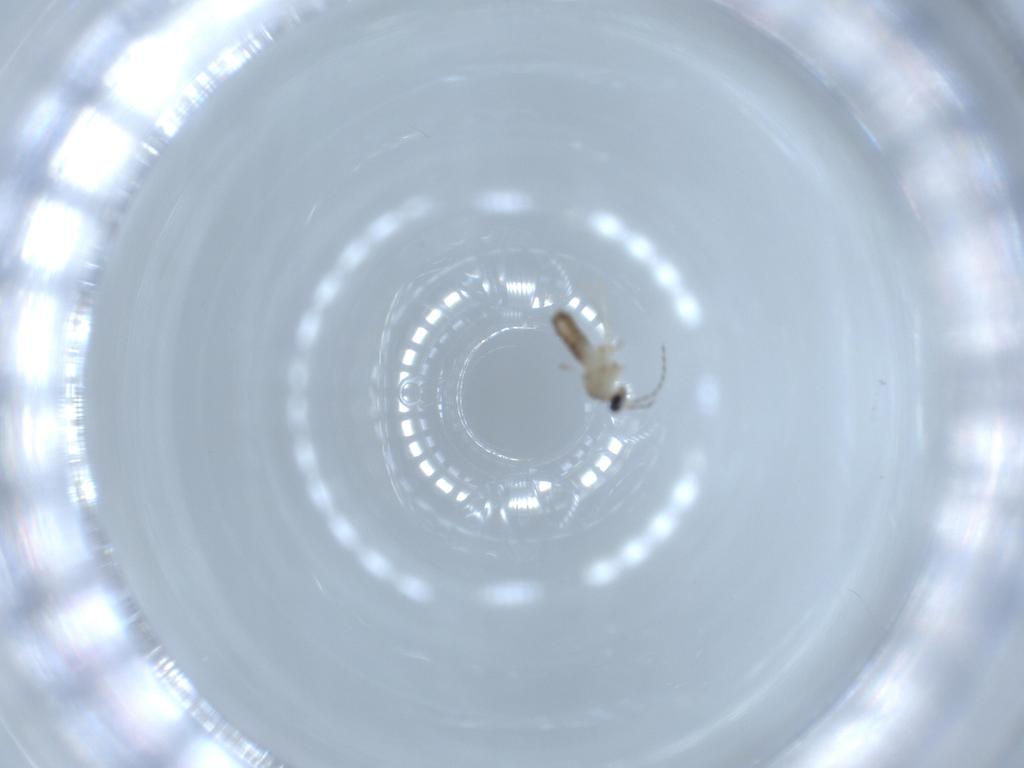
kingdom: Animalia
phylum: Arthropoda
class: Insecta
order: Diptera
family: Cecidomyiidae
